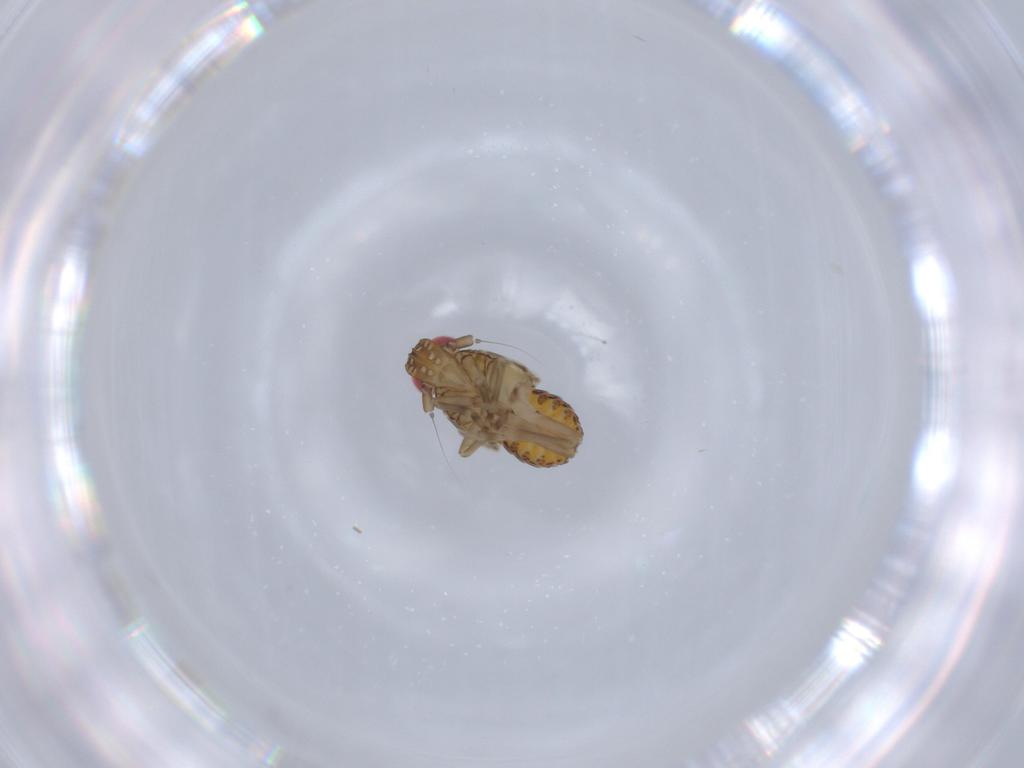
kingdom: Animalia
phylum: Arthropoda
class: Insecta
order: Hemiptera
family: Delphacidae
